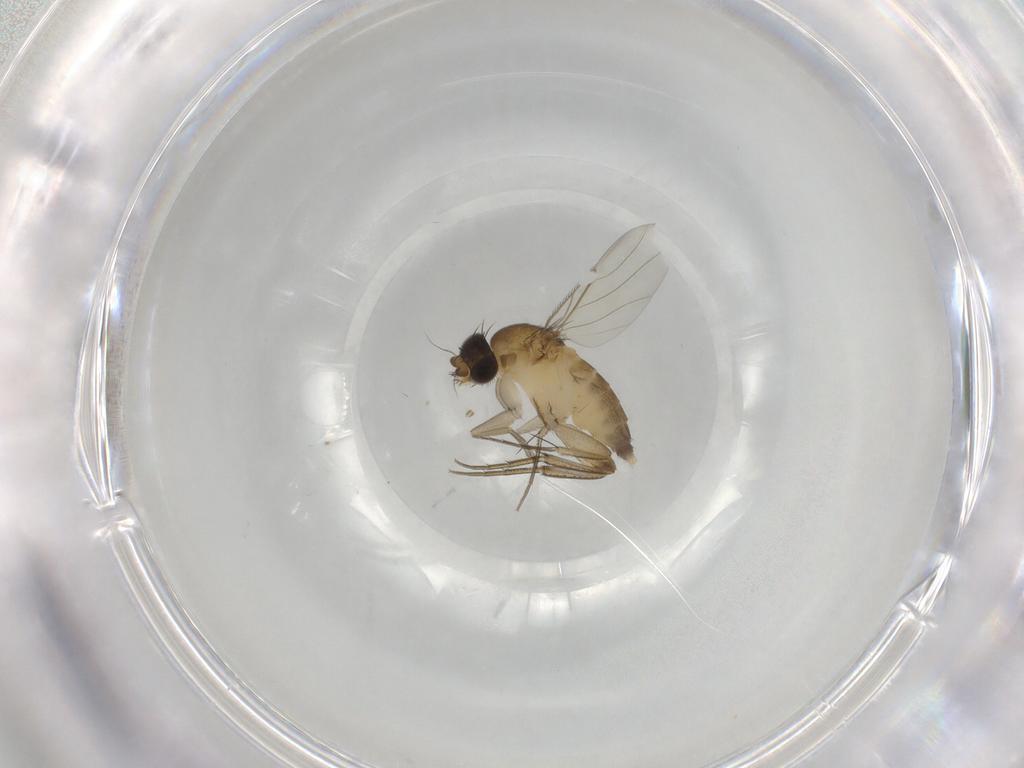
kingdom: Animalia
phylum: Arthropoda
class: Insecta
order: Diptera
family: Phoridae
